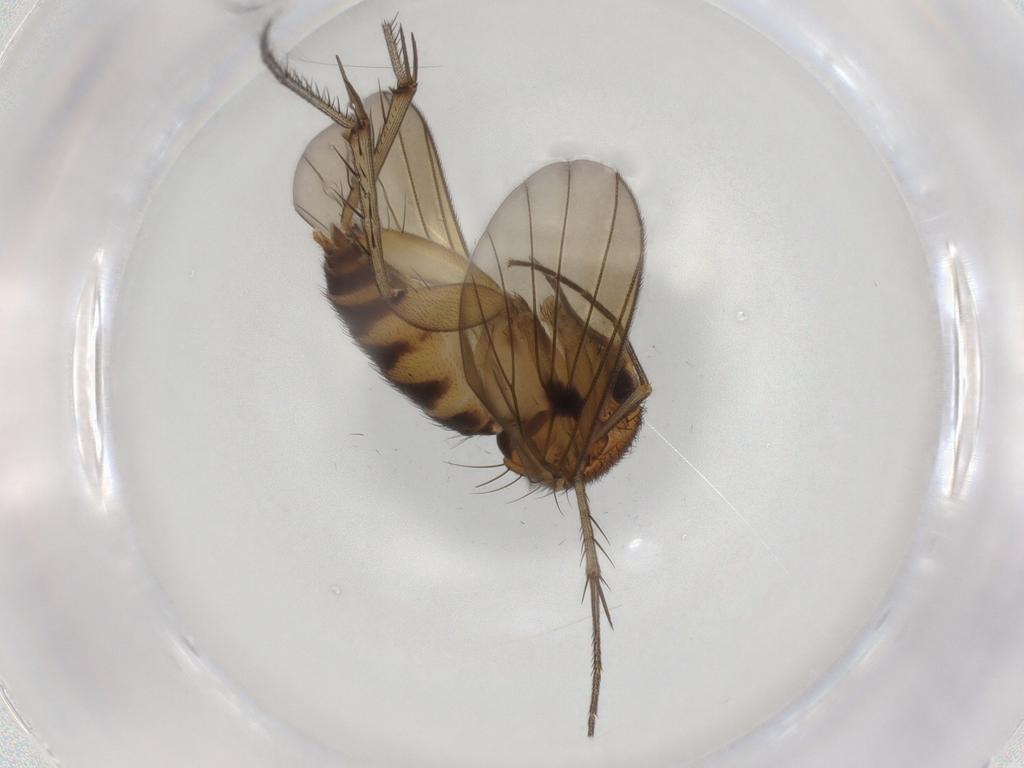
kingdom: Animalia
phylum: Arthropoda
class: Insecta
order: Diptera
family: Mycetophilidae
